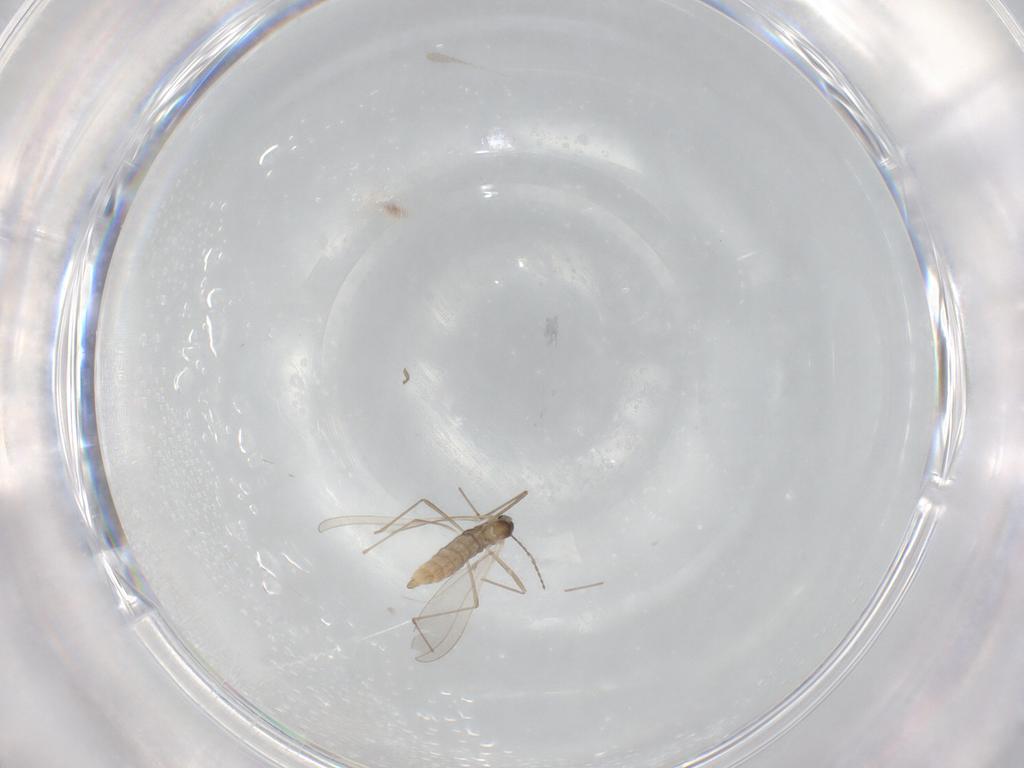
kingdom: Animalia
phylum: Arthropoda
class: Insecta
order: Diptera
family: Cecidomyiidae
